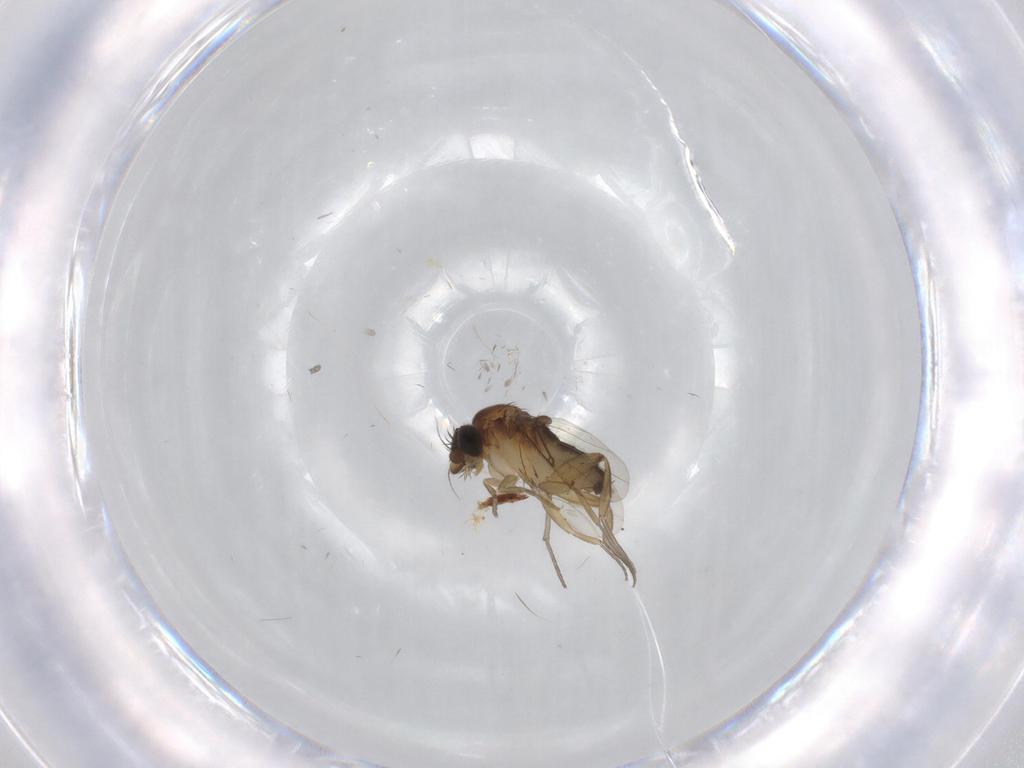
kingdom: Animalia
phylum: Arthropoda
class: Insecta
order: Diptera
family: Phoridae
